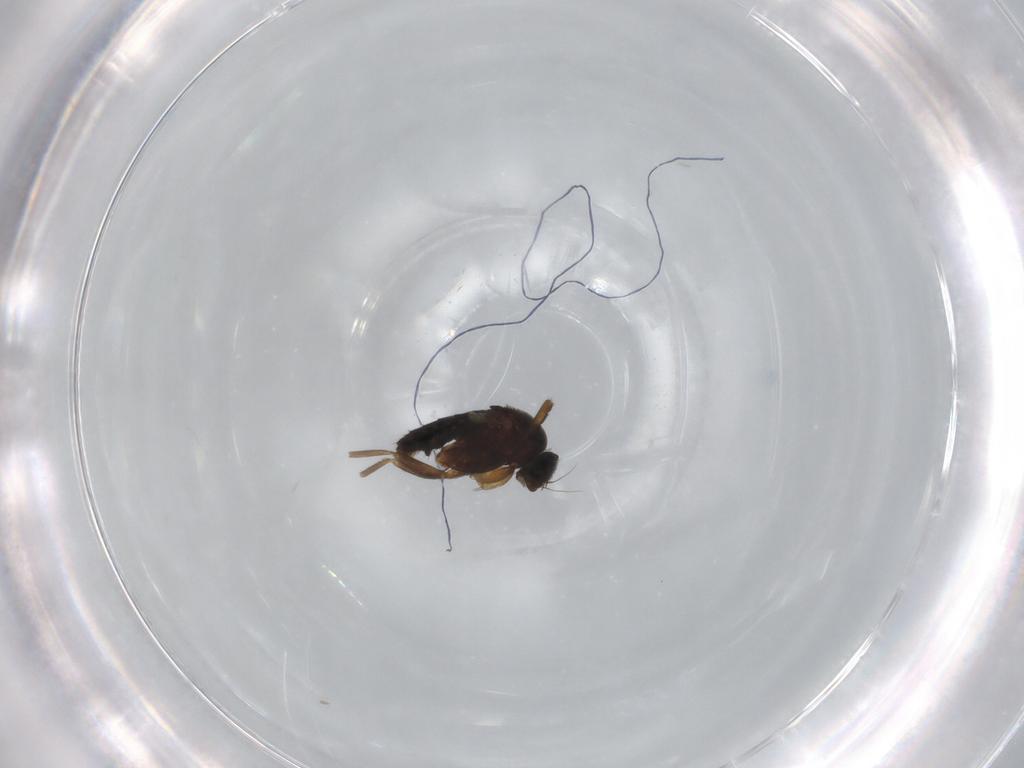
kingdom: Animalia
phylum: Arthropoda
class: Insecta
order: Diptera
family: Phoridae
